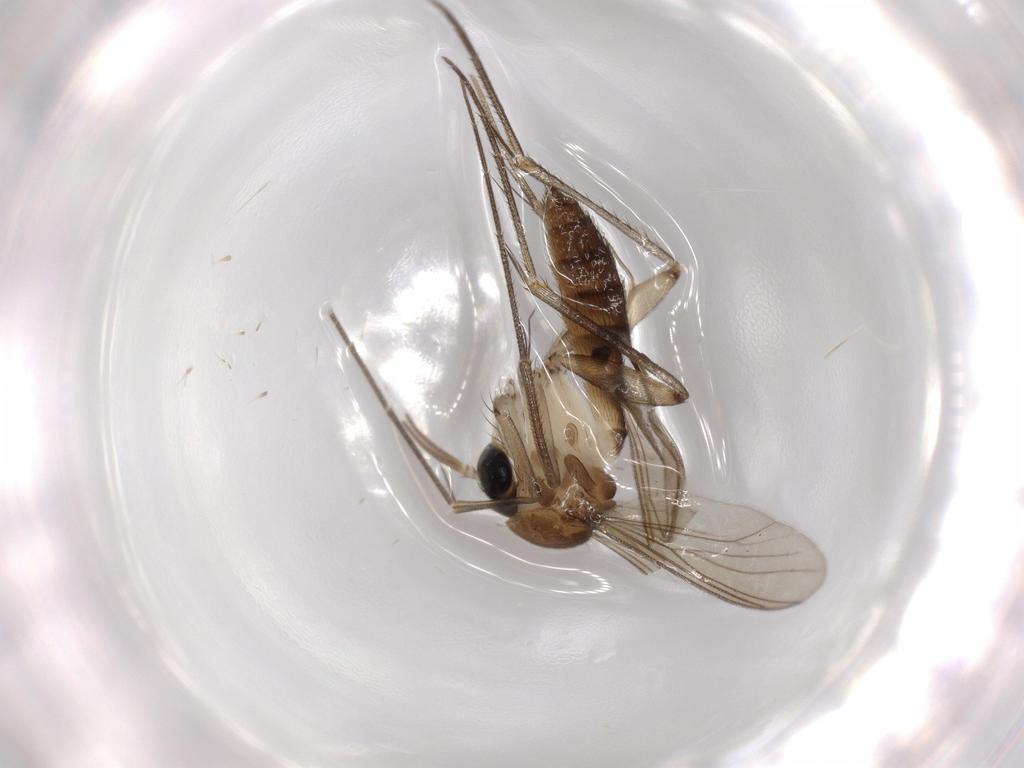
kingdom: Animalia
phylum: Arthropoda
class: Insecta
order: Diptera
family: Sciaridae
